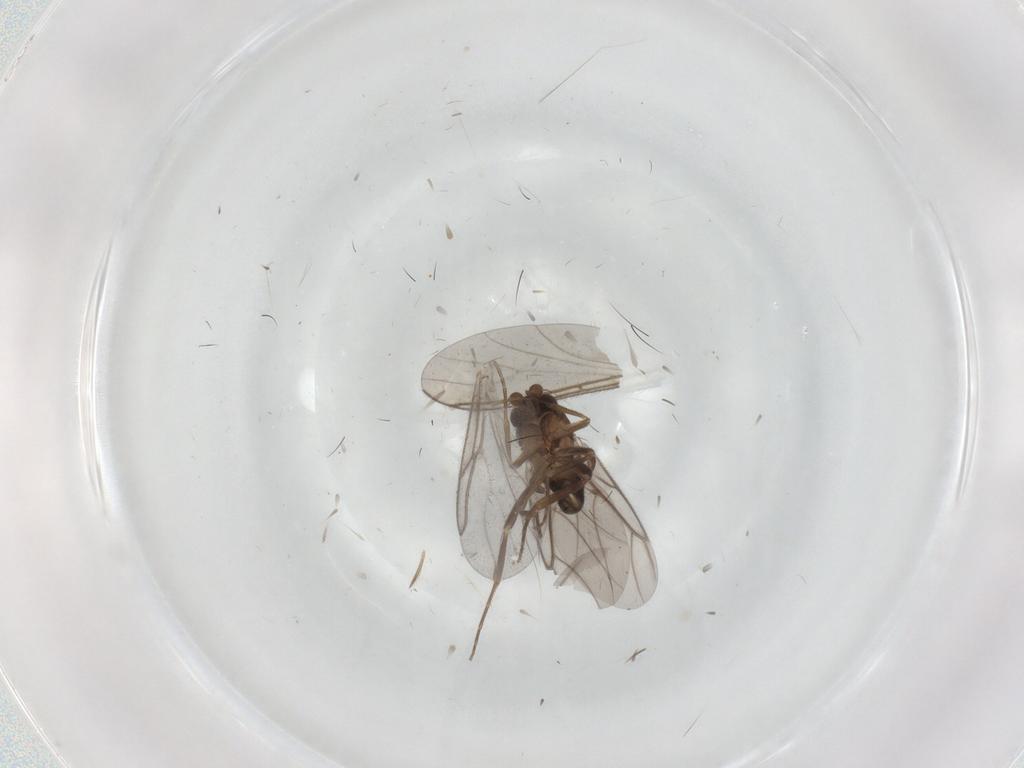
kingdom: Animalia
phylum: Arthropoda
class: Insecta
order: Diptera
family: Sciaridae
